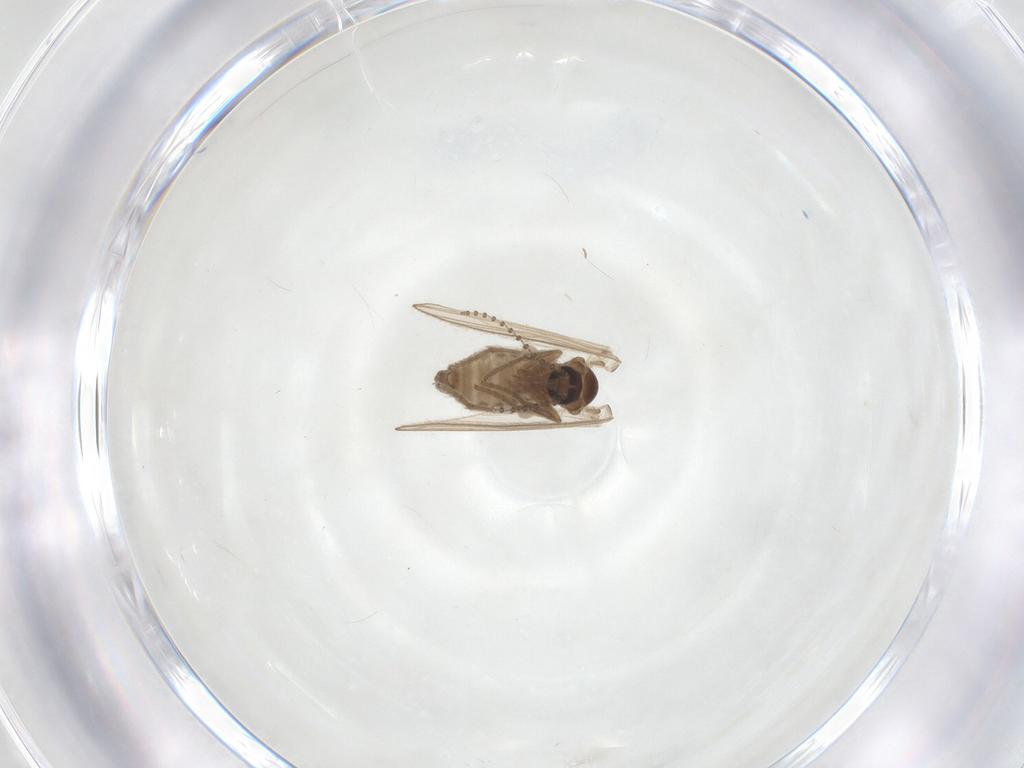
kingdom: Animalia
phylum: Arthropoda
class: Insecta
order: Diptera
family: Psychodidae
